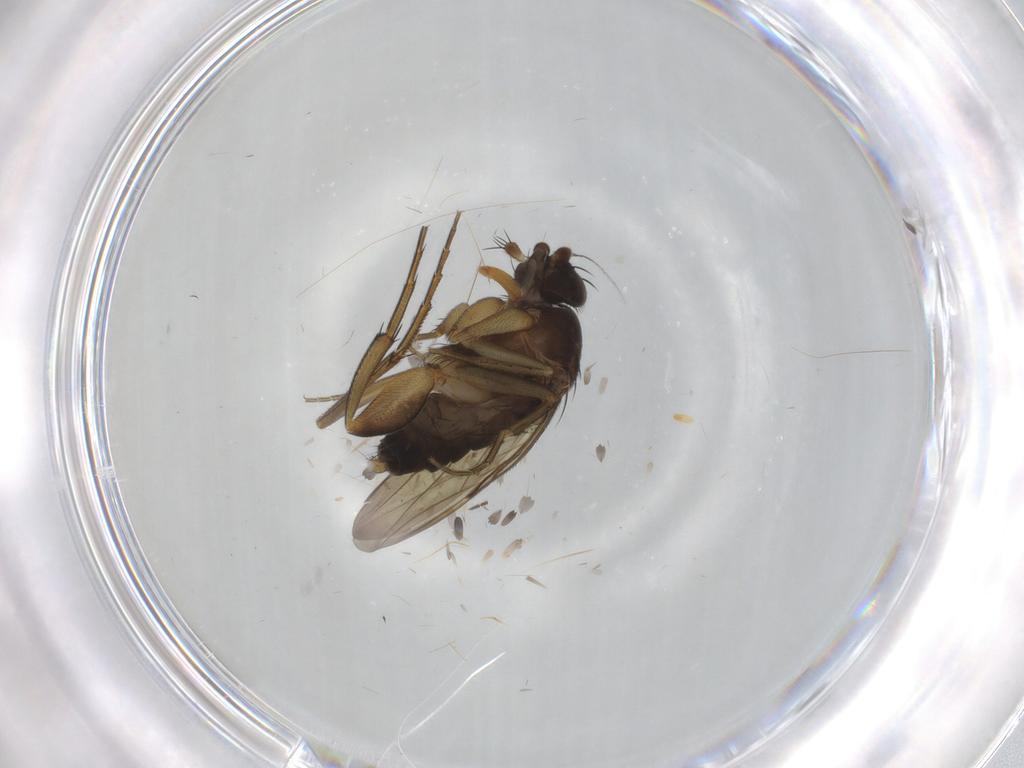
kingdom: Animalia
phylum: Arthropoda
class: Insecta
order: Diptera
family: Psychodidae
